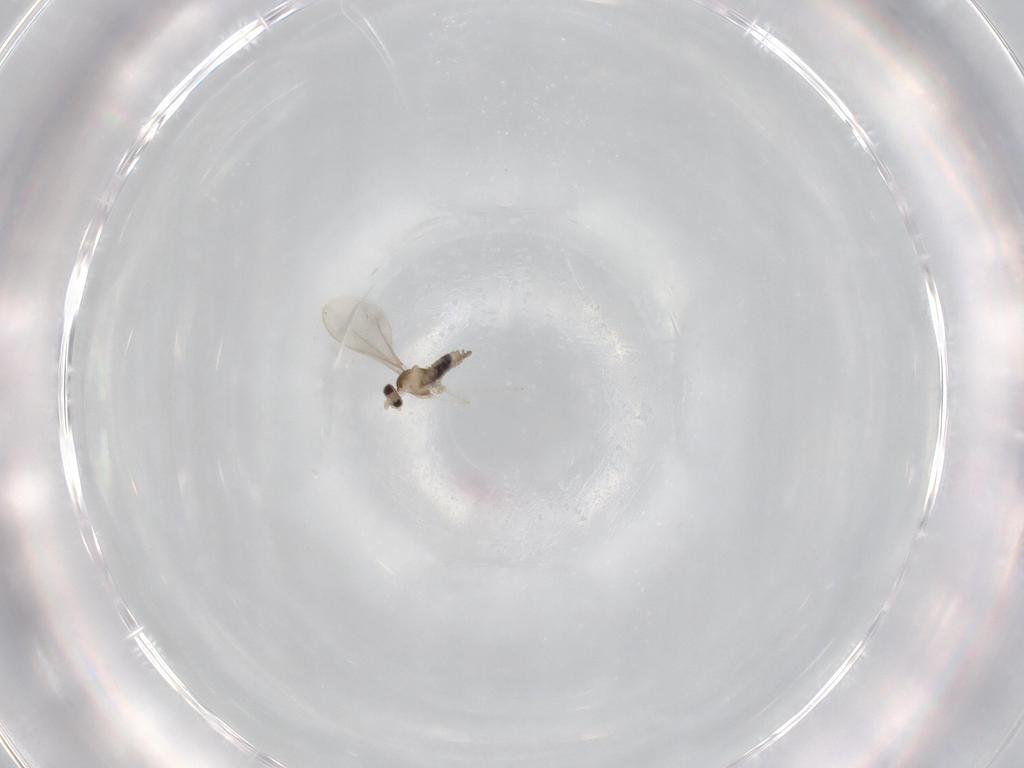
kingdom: Animalia
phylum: Arthropoda
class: Insecta
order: Diptera
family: Cecidomyiidae
